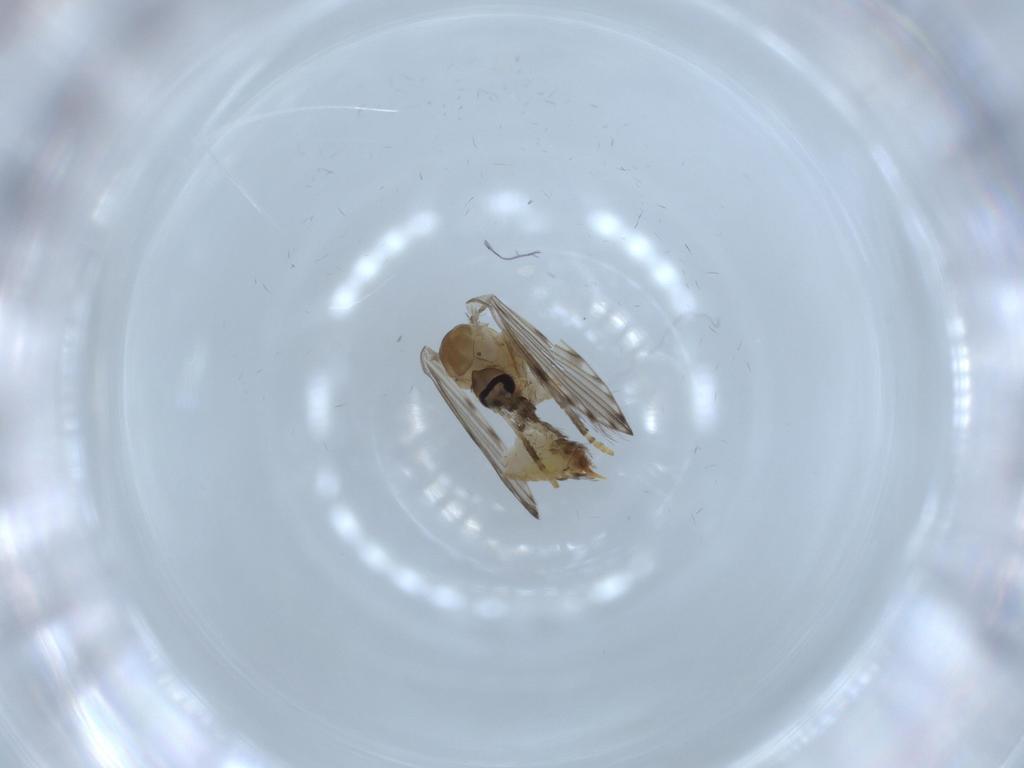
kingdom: Animalia
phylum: Arthropoda
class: Insecta
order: Diptera
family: Psychodidae
